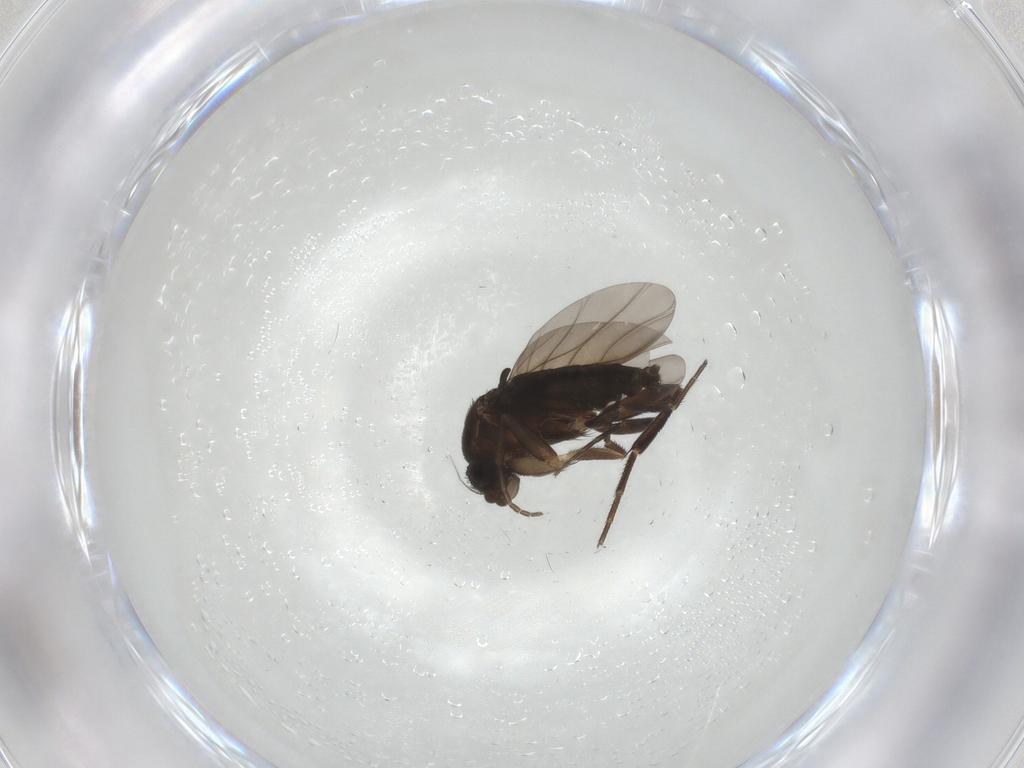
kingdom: Animalia
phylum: Arthropoda
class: Insecta
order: Diptera
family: Phoridae
